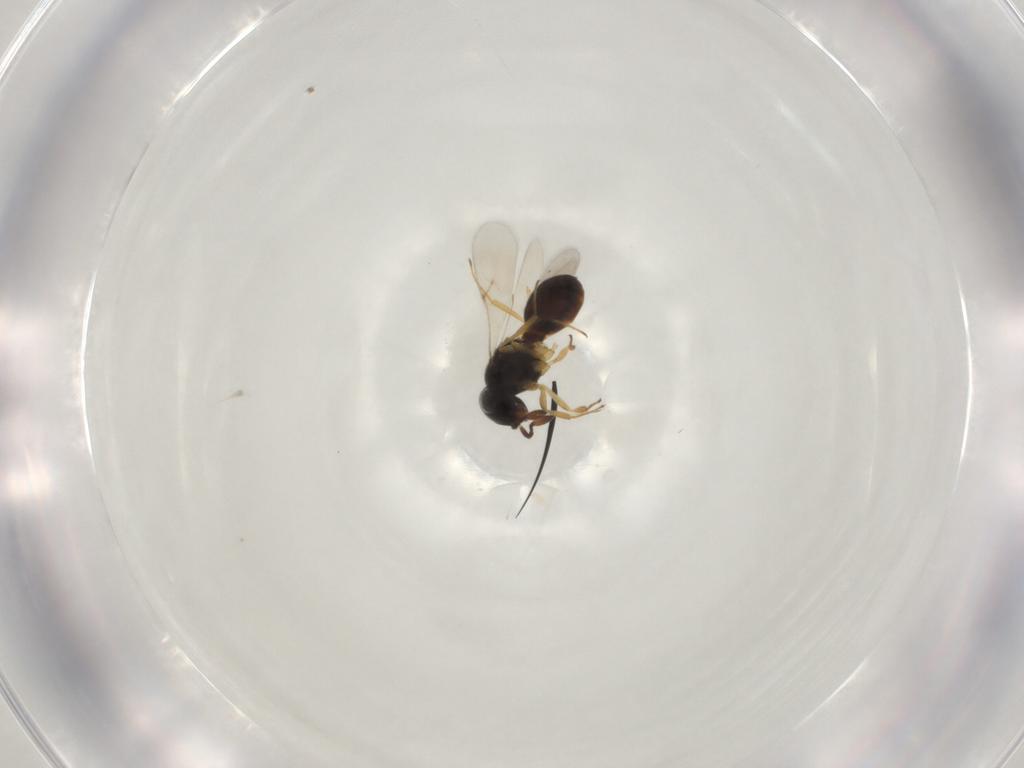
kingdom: Animalia
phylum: Arthropoda
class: Insecta
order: Hymenoptera
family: Scelionidae
